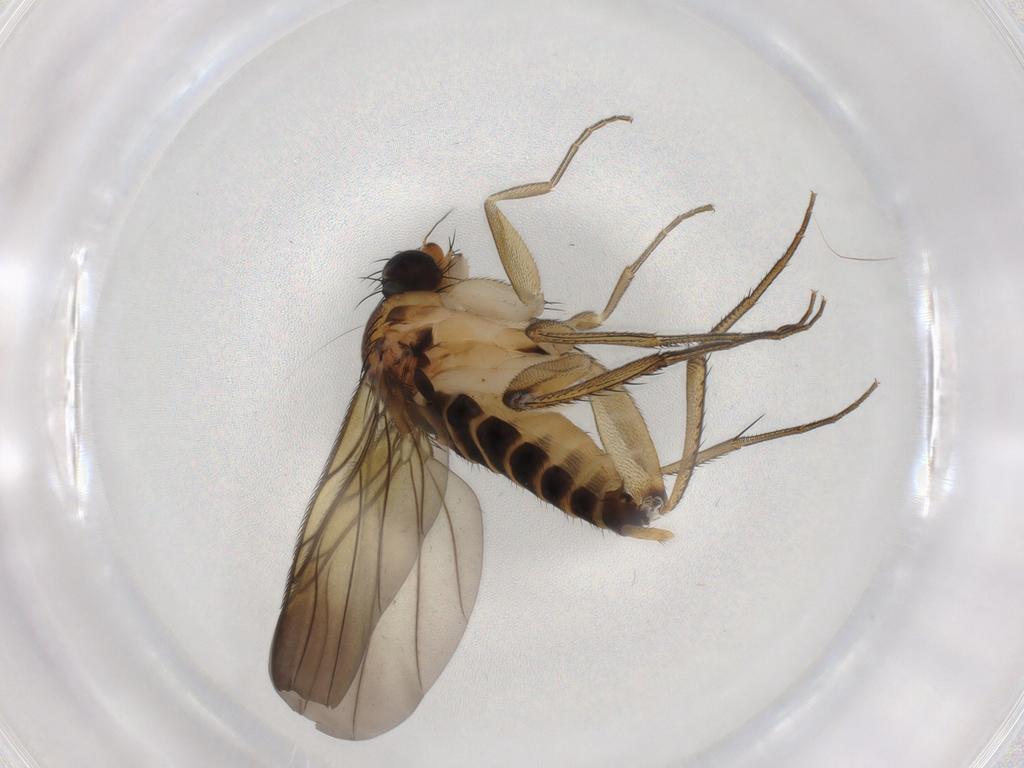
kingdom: Animalia
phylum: Arthropoda
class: Insecta
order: Diptera
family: Phoridae
